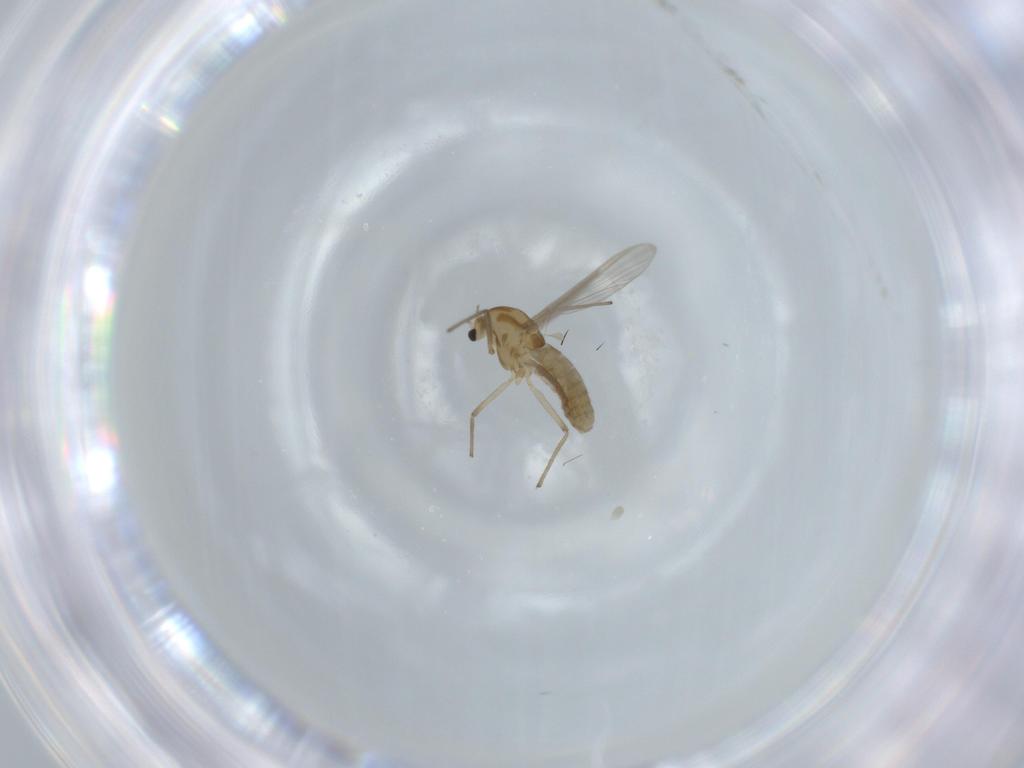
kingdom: Animalia
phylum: Arthropoda
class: Insecta
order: Diptera
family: Chironomidae
